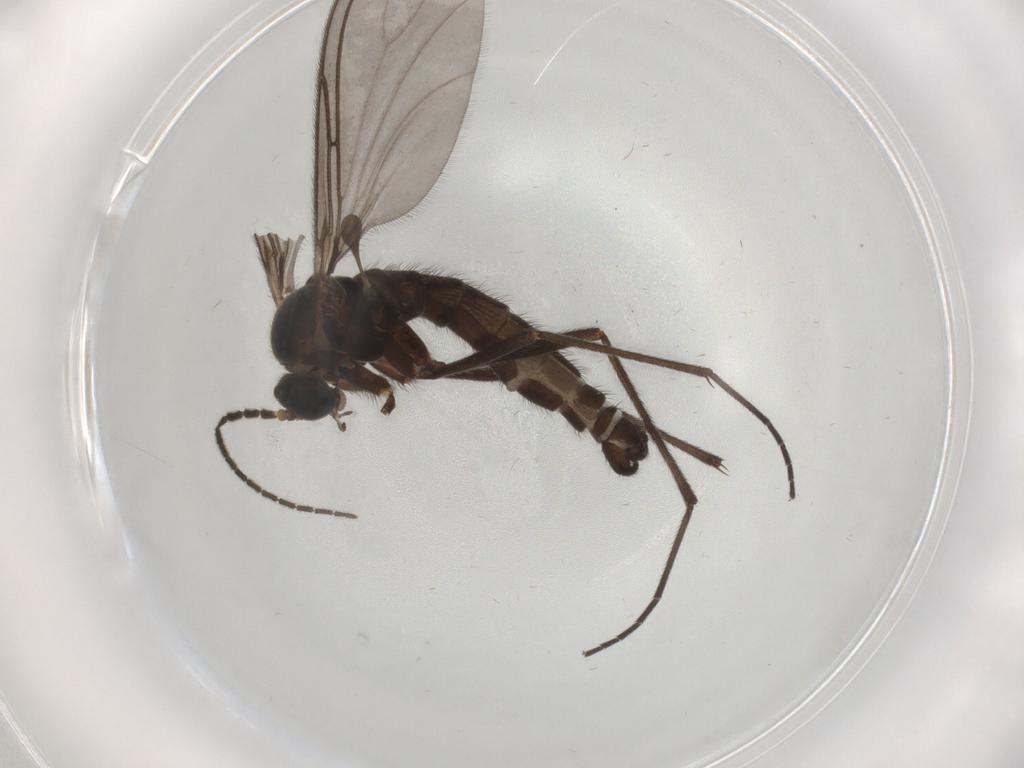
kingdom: Animalia
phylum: Arthropoda
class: Insecta
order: Diptera
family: Sciaridae
